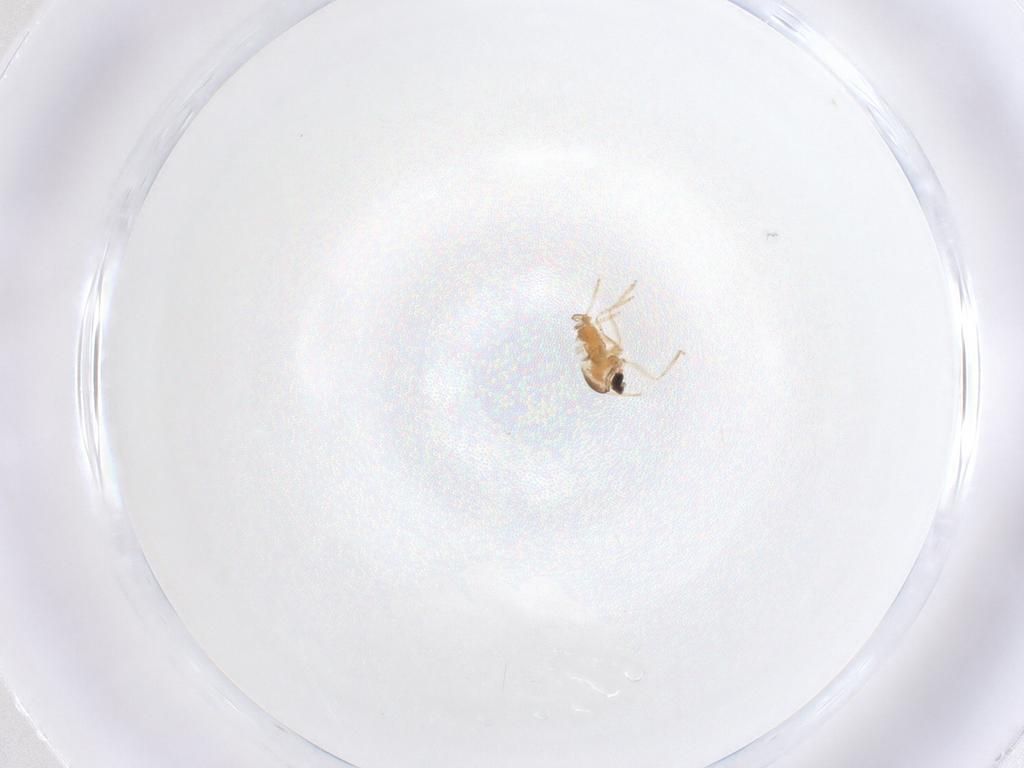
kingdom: Animalia
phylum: Arthropoda
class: Insecta
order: Diptera
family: Cecidomyiidae
